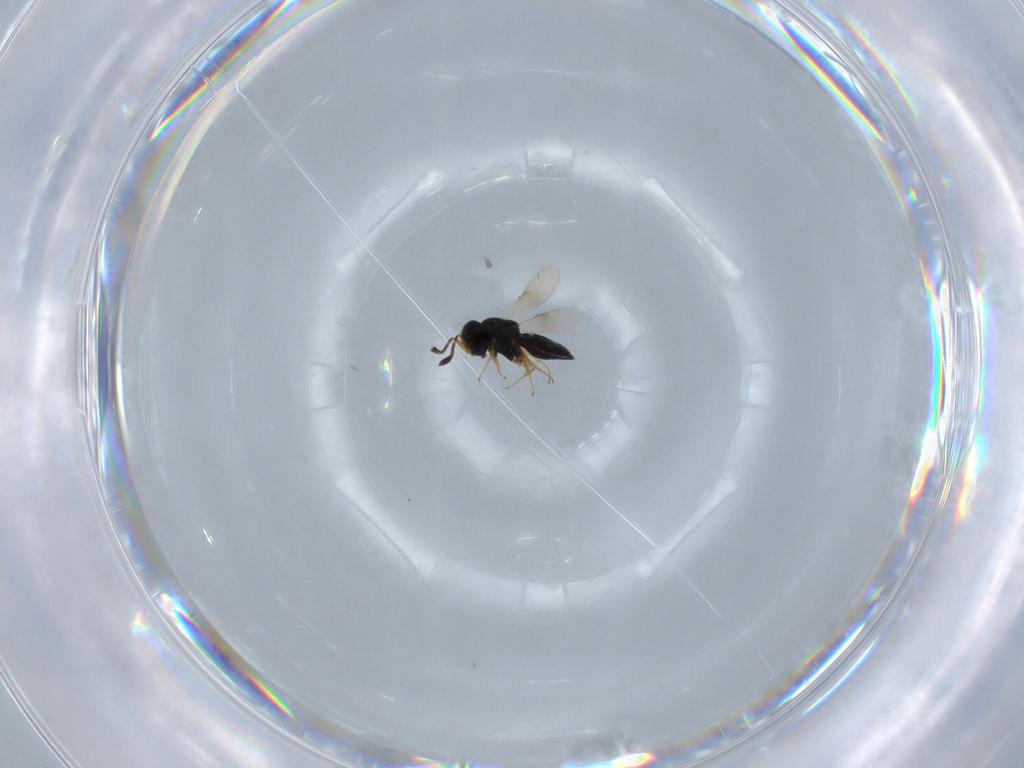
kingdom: Animalia
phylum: Arthropoda
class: Insecta
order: Hymenoptera
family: Scelionidae
